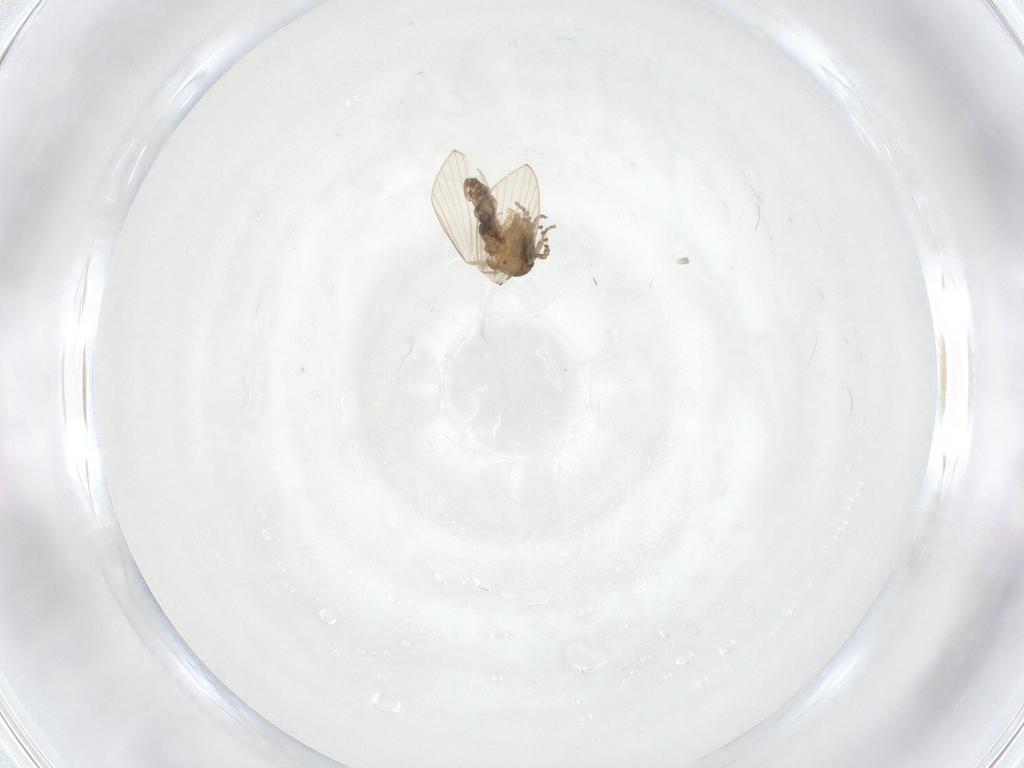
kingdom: Animalia
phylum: Arthropoda
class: Insecta
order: Diptera
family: Psychodidae
